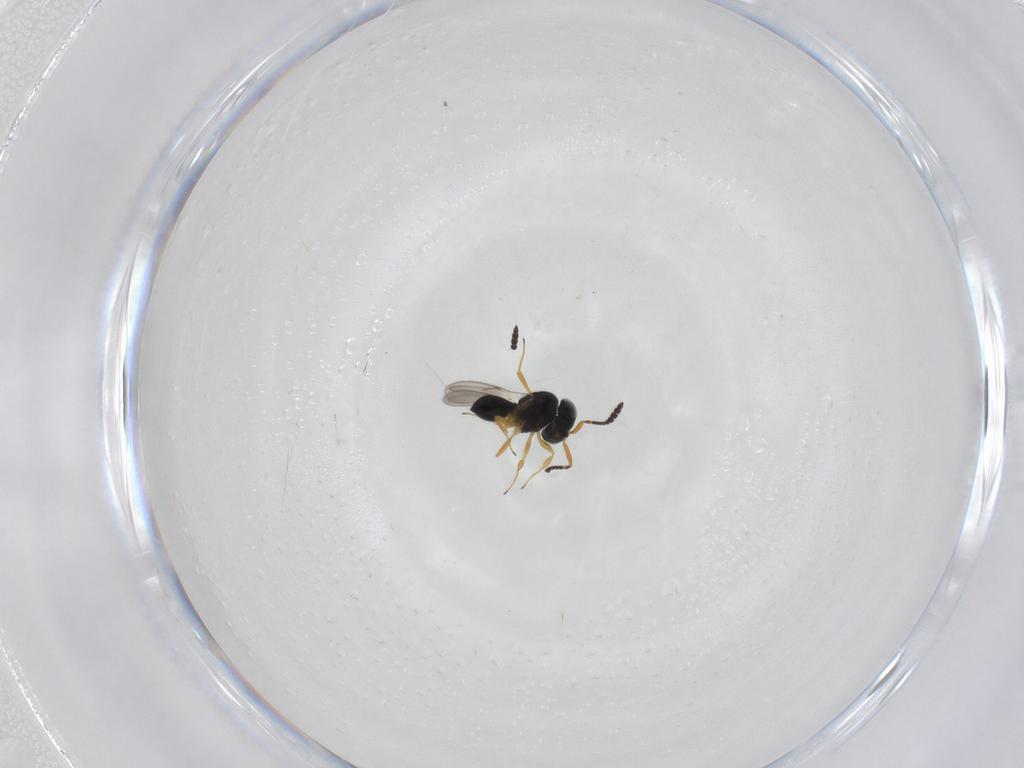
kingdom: Animalia
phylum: Arthropoda
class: Insecta
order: Hymenoptera
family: Scelionidae
